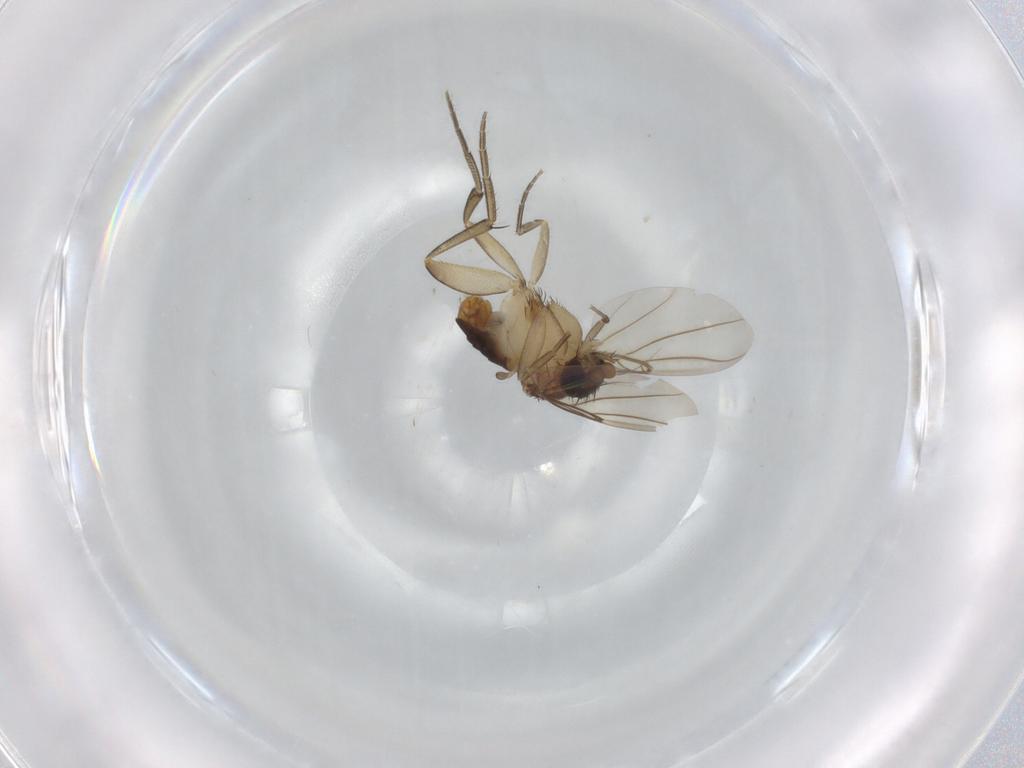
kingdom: Animalia
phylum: Arthropoda
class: Insecta
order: Diptera
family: Phoridae
